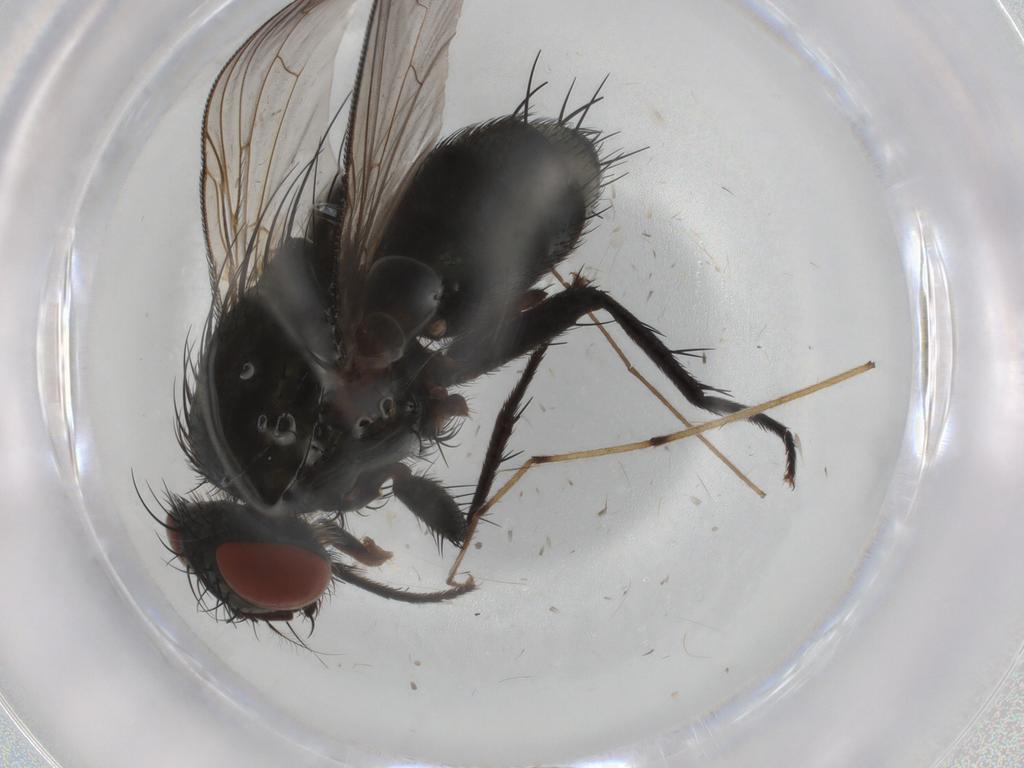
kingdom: Animalia
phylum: Arthropoda
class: Insecta
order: Diptera
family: Sarcophagidae
